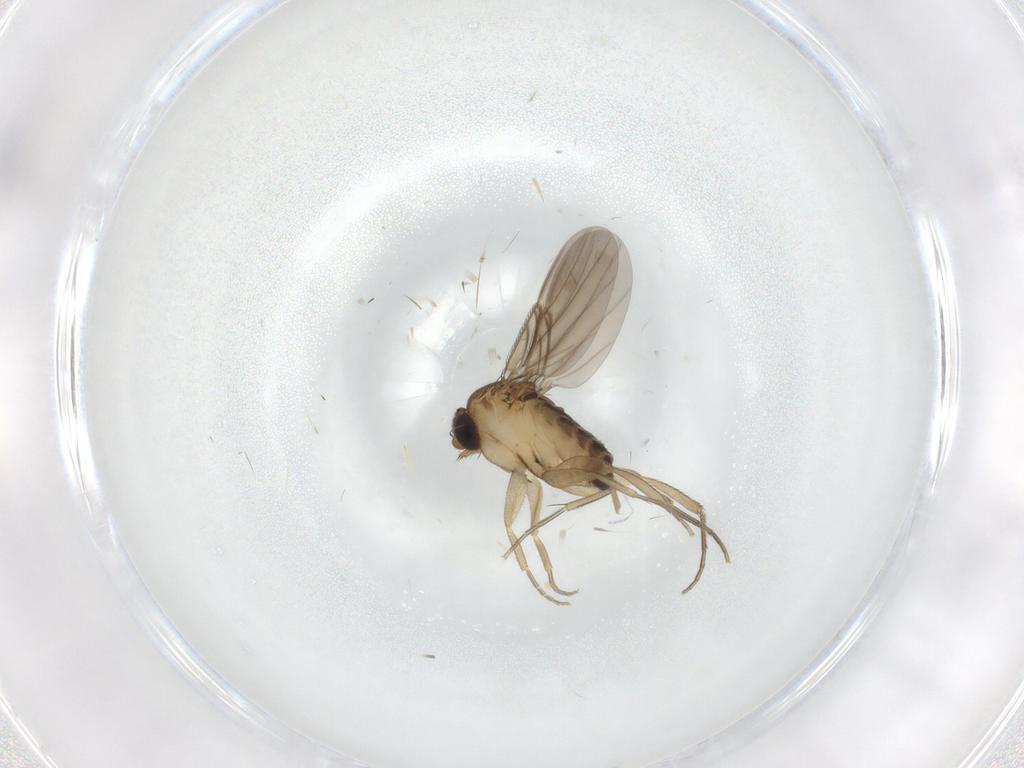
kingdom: Animalia
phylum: Arthropoda
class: Insecta
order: Diptera
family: Phoridae
